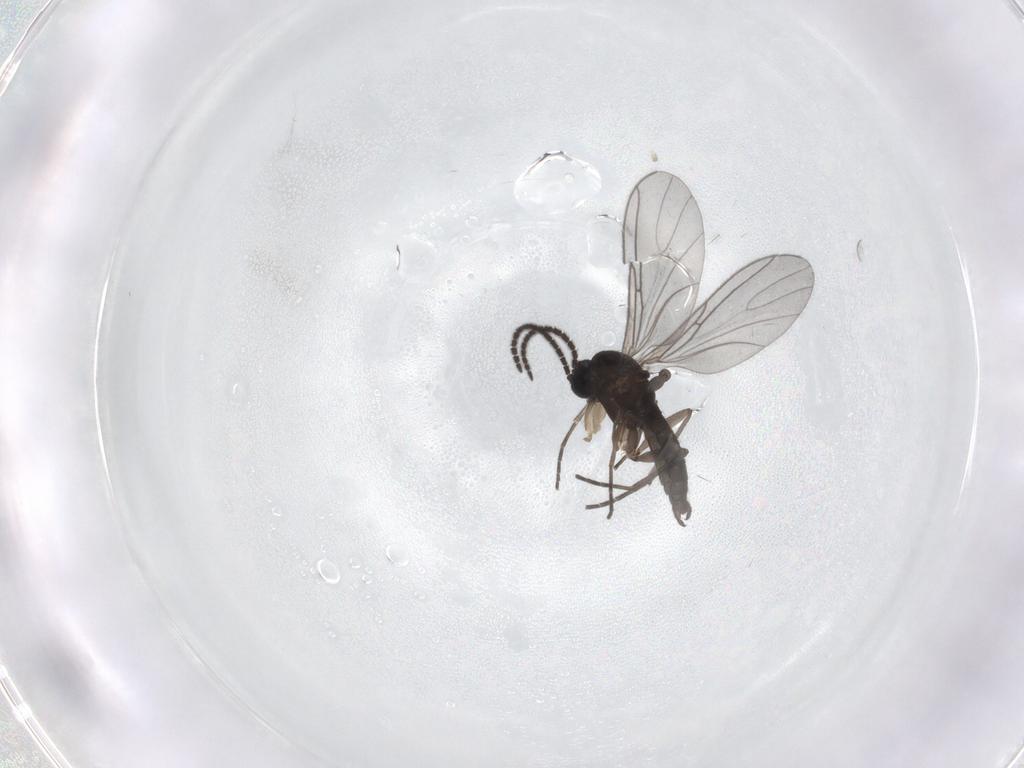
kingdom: Animalia
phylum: Arthropoda
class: Insecta
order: Diptera
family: Sciaridae
